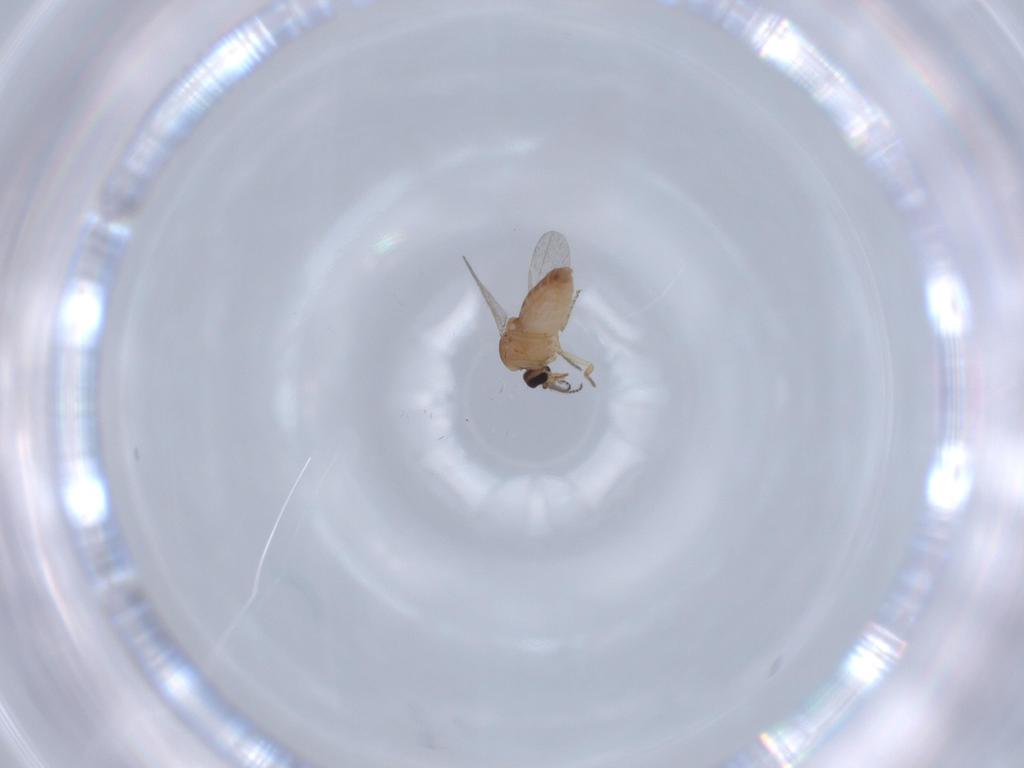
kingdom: Animalia
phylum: Arthropoda
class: Insecta
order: Diptera
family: Ceratopogonidae
